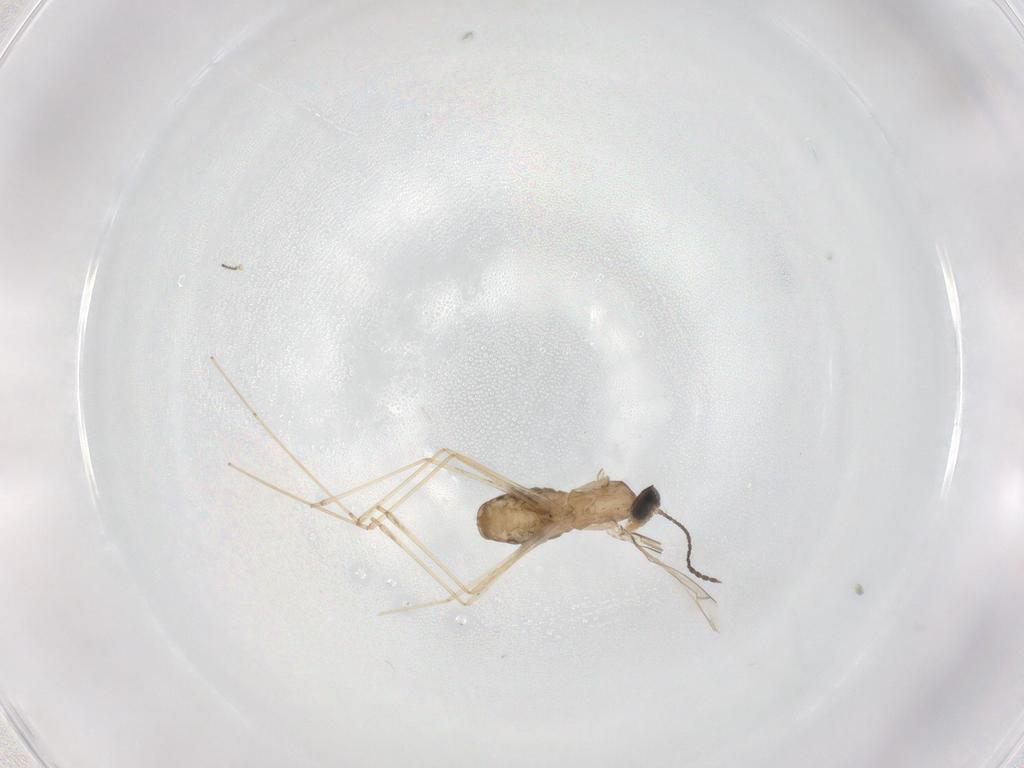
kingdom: Animalia
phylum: Arthropoda
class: Insecta
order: Diptera
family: Cecidomyiidae
